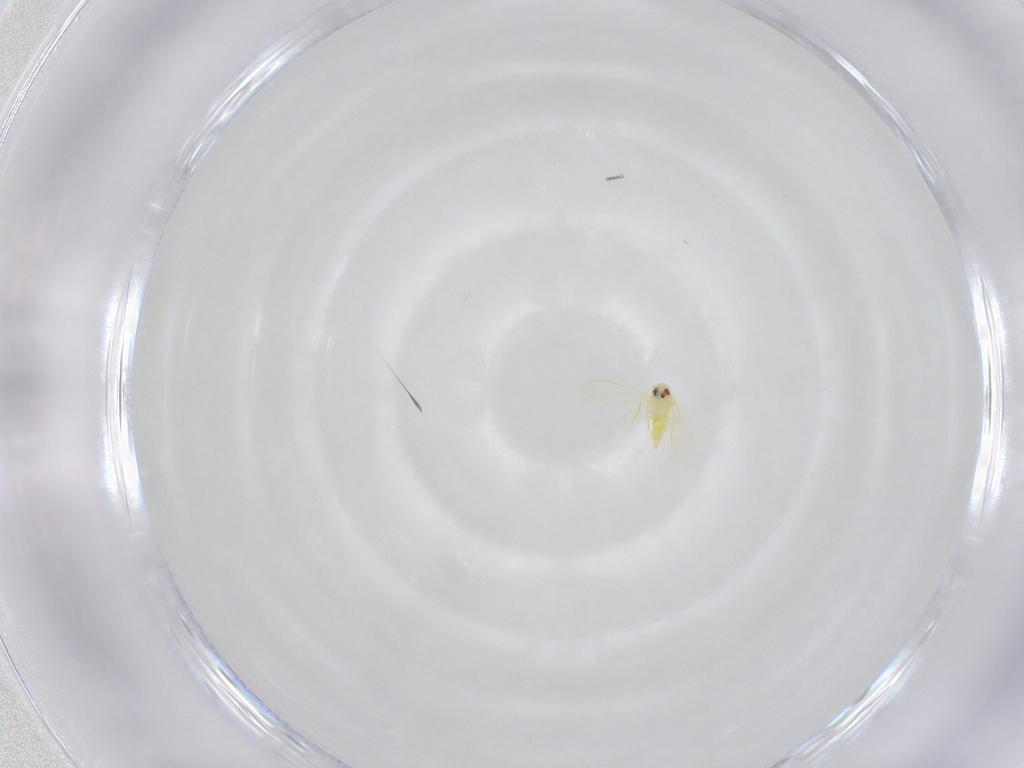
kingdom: Animalia
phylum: Arthropoda
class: Insecta
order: Hemiptera
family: Aleyrodidae
